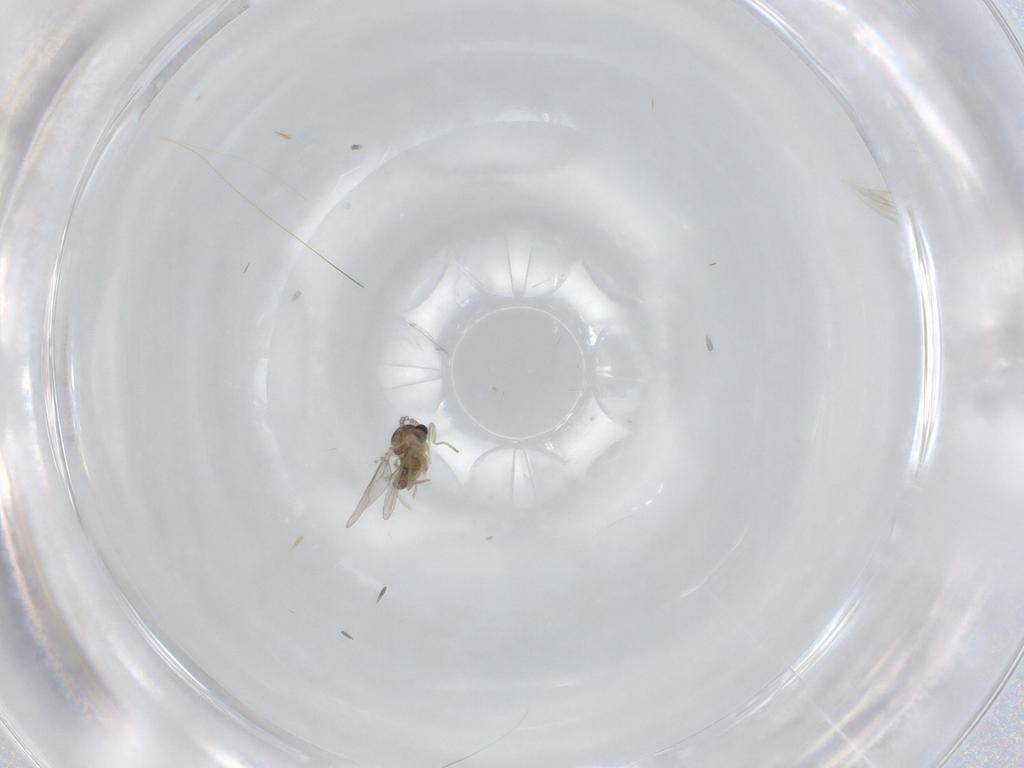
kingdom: Animalia
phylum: Arthropoda
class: Insecta
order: Diptera
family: Cecidomyiidae
